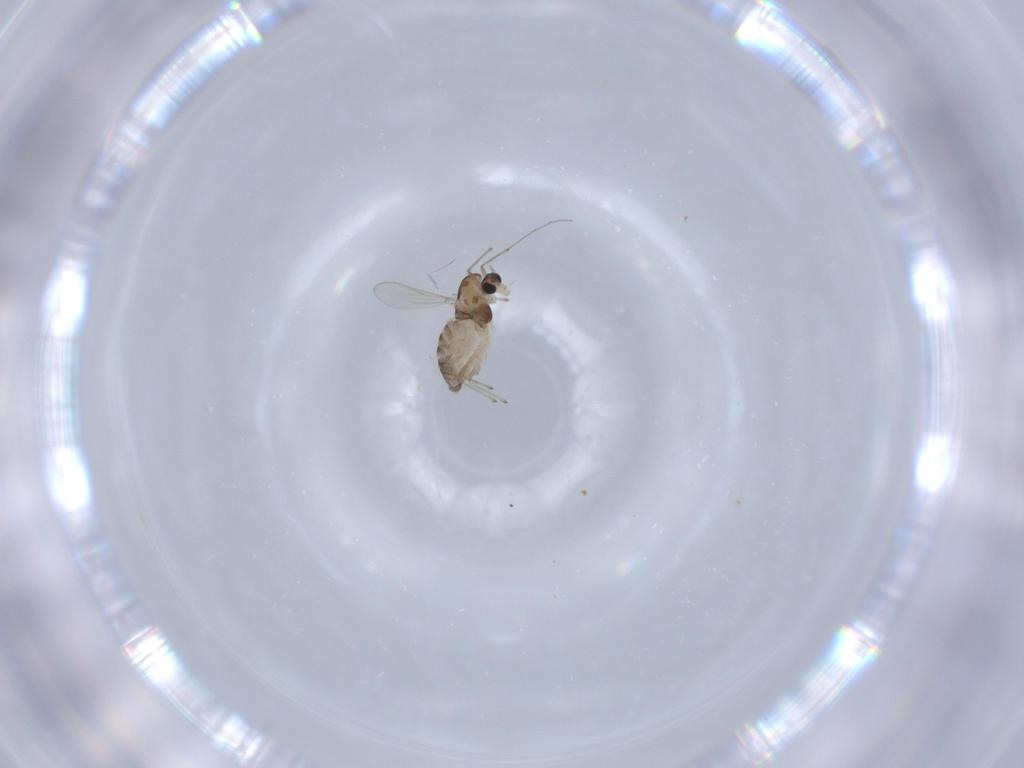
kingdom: Animalia
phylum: Arthropoda
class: Insecta
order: Diptera
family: Chironomidae
